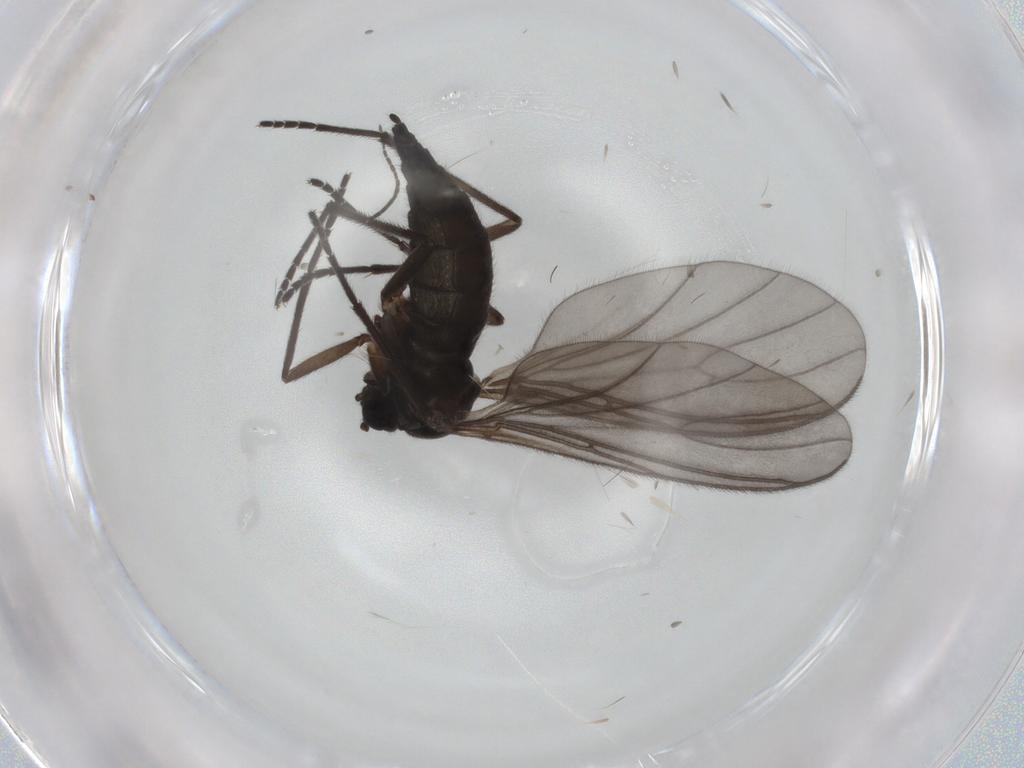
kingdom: Animalia
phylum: Arthropoda
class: Insecta
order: Diptera
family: Sciaridae
